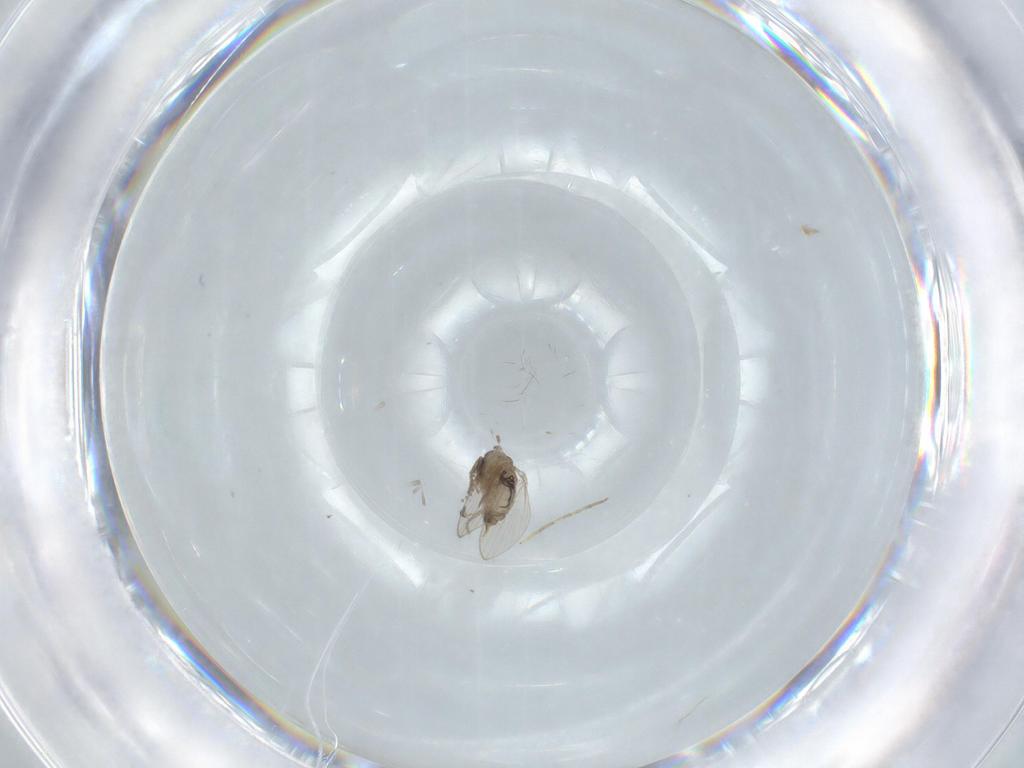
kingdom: Animalia
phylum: Arthropoda
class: Insecta
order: Diptera
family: Psychodidae
